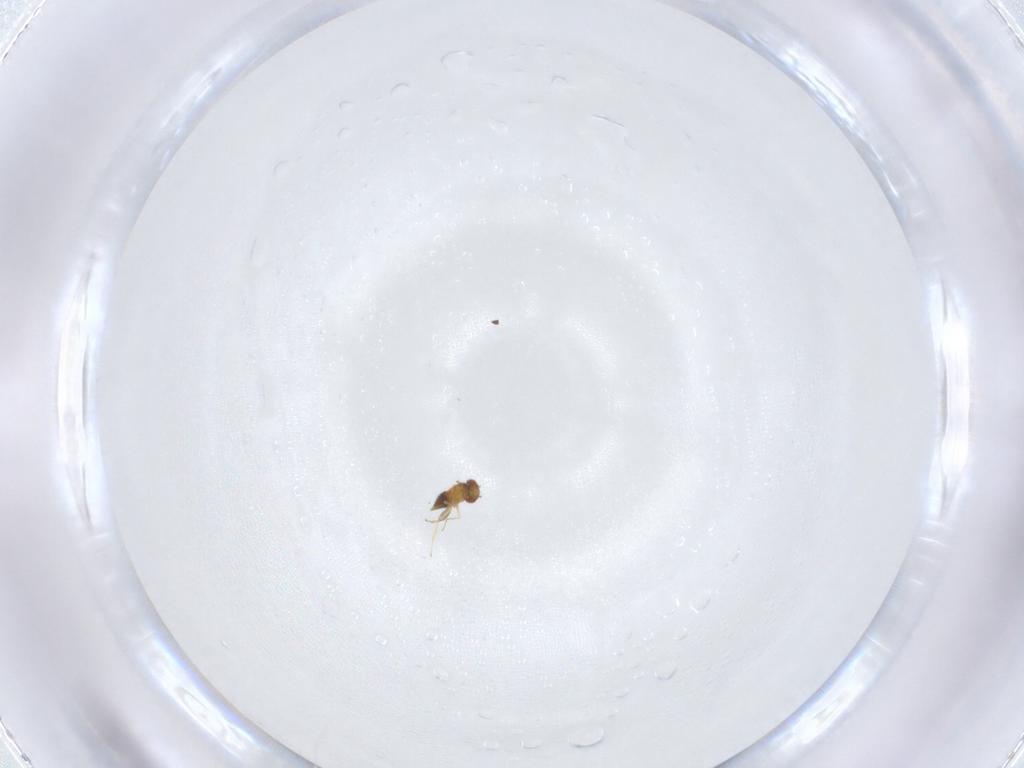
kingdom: Animalia
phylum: Arthropoda
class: Insecta
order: Hymenoptera
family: Trichogrammatidae
